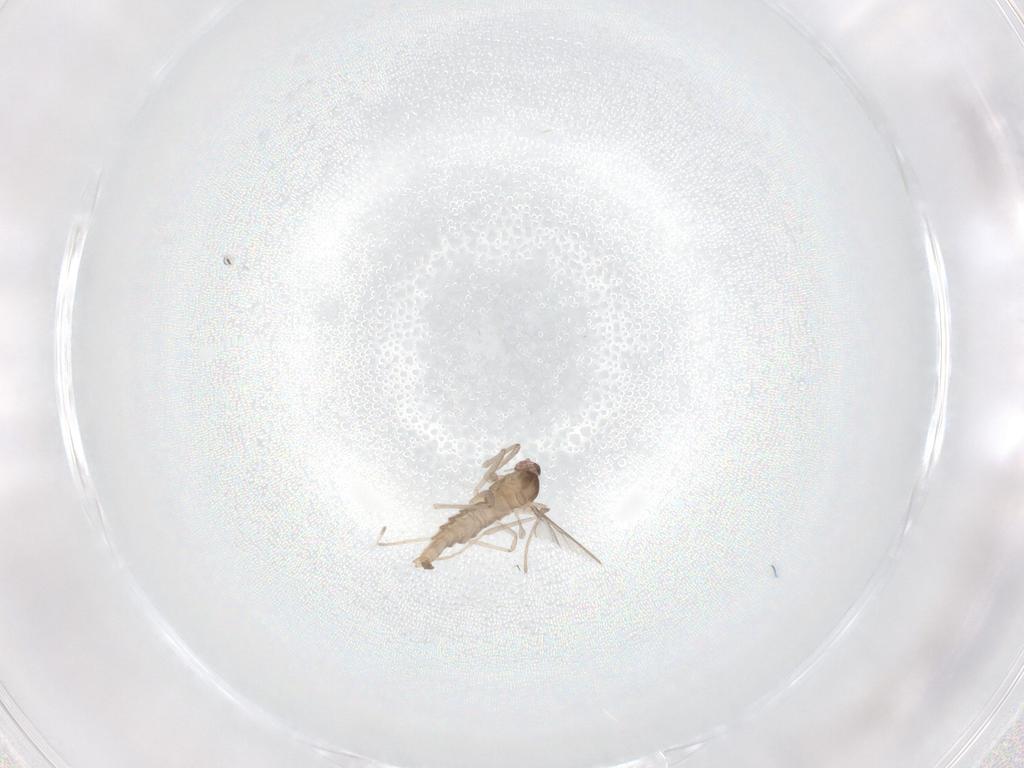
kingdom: Animalia
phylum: Arthropoda
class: Insecta
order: Diptera
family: Cecidomyiidae
